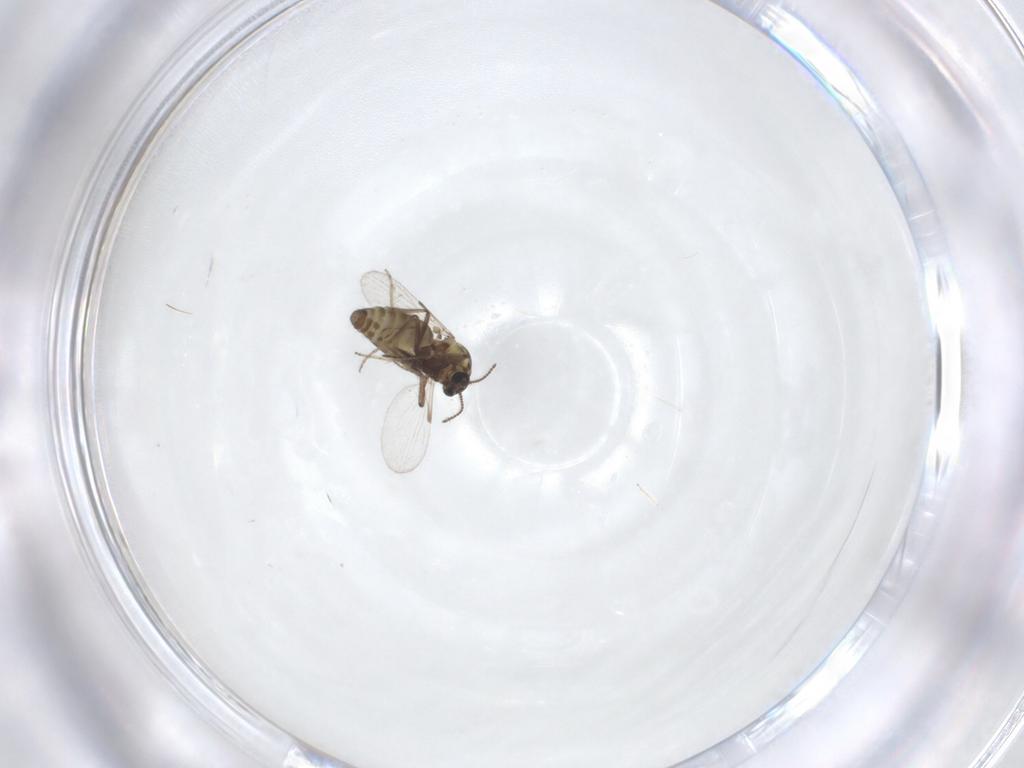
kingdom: Animalia
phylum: Arthropoda
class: Insecta
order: Diptera
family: Ceratopogonidae
